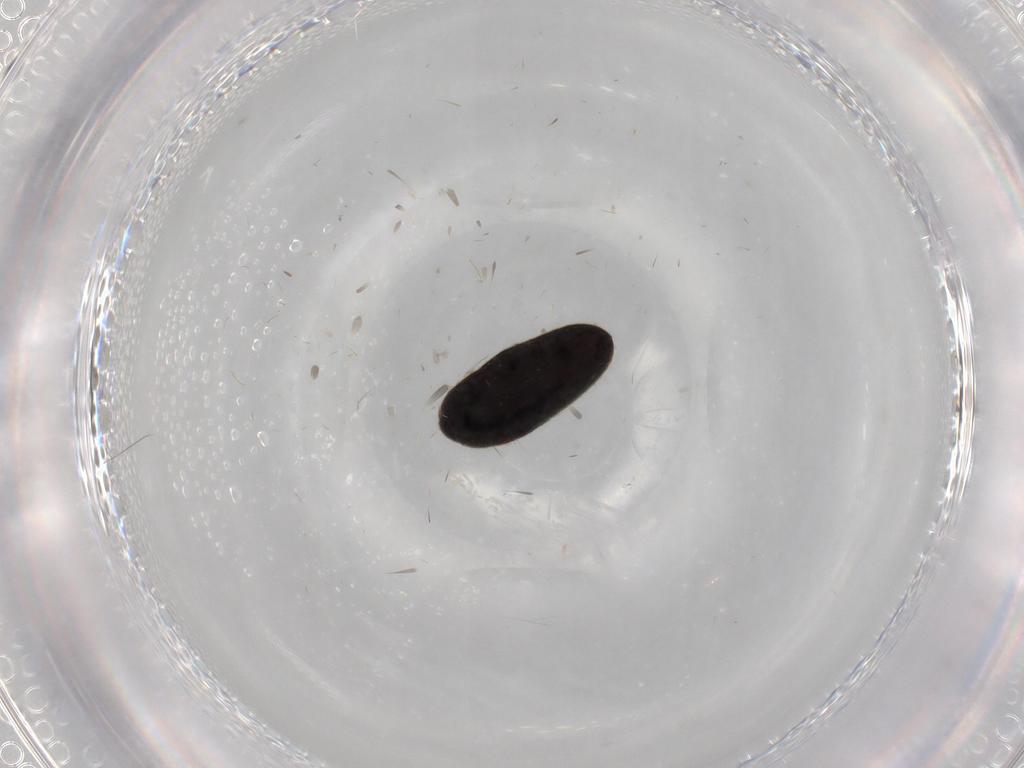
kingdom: Animalia
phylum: Arthropoda
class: Insecta
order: Coleoptera
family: Throscidae
